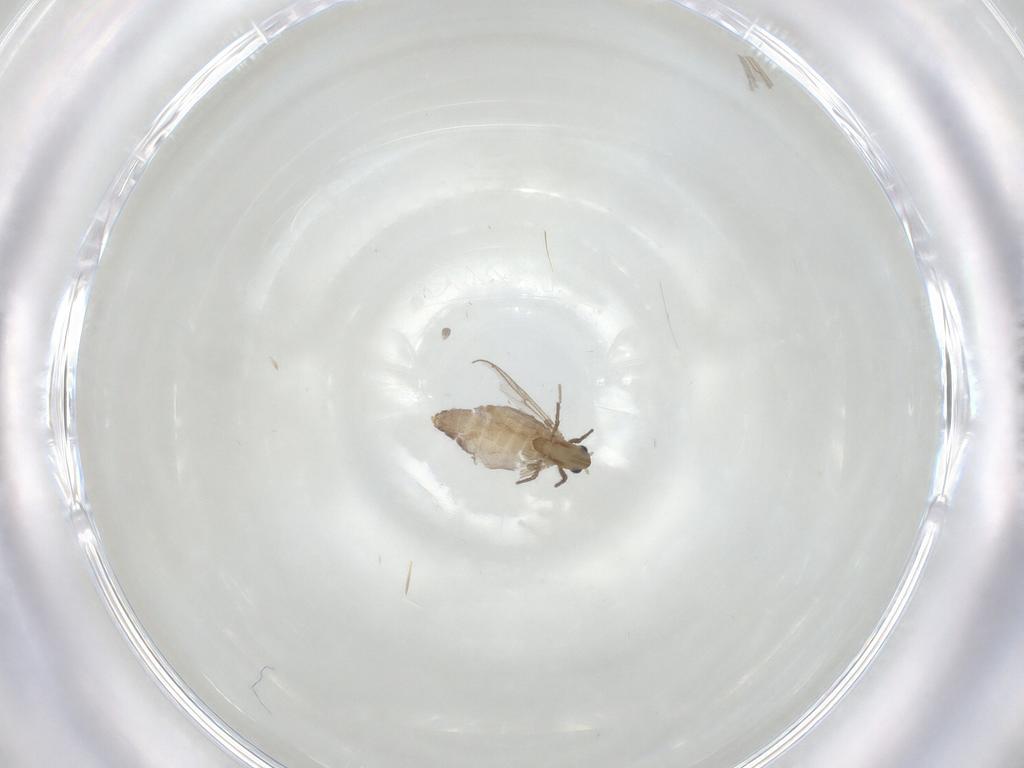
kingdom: Animalia
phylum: Arthropoda
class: Insecta
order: Diptera
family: Chironomidae
